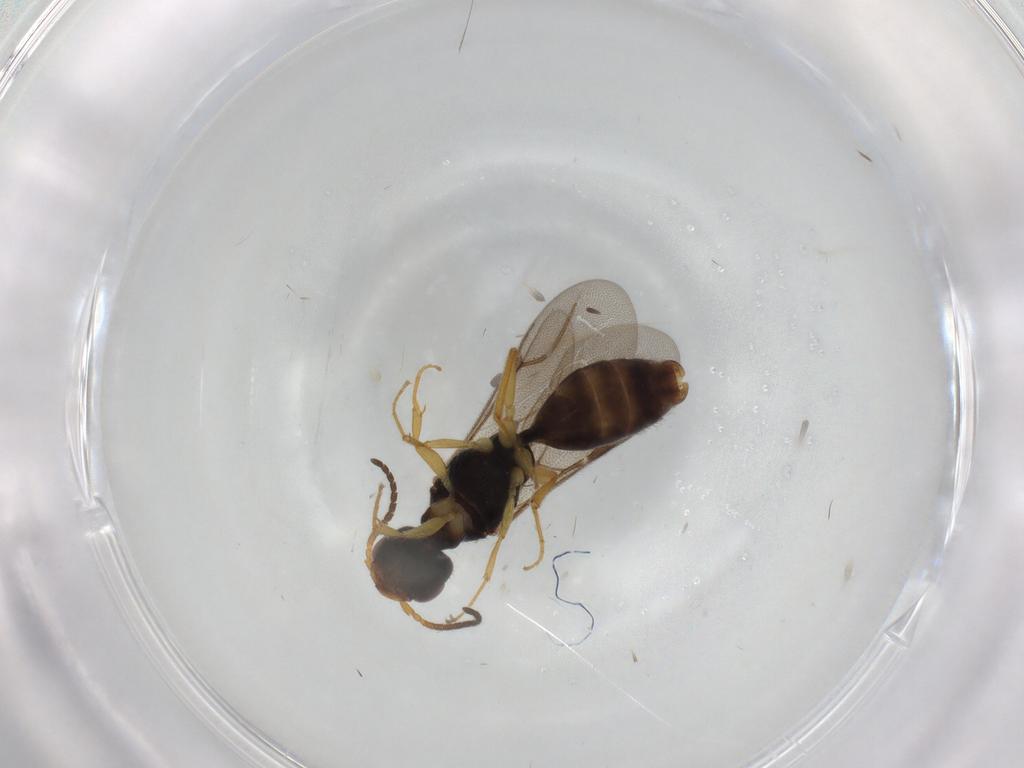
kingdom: Animalia
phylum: Arthropoda
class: Insecta
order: Hymenoptera
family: Bethylidae
